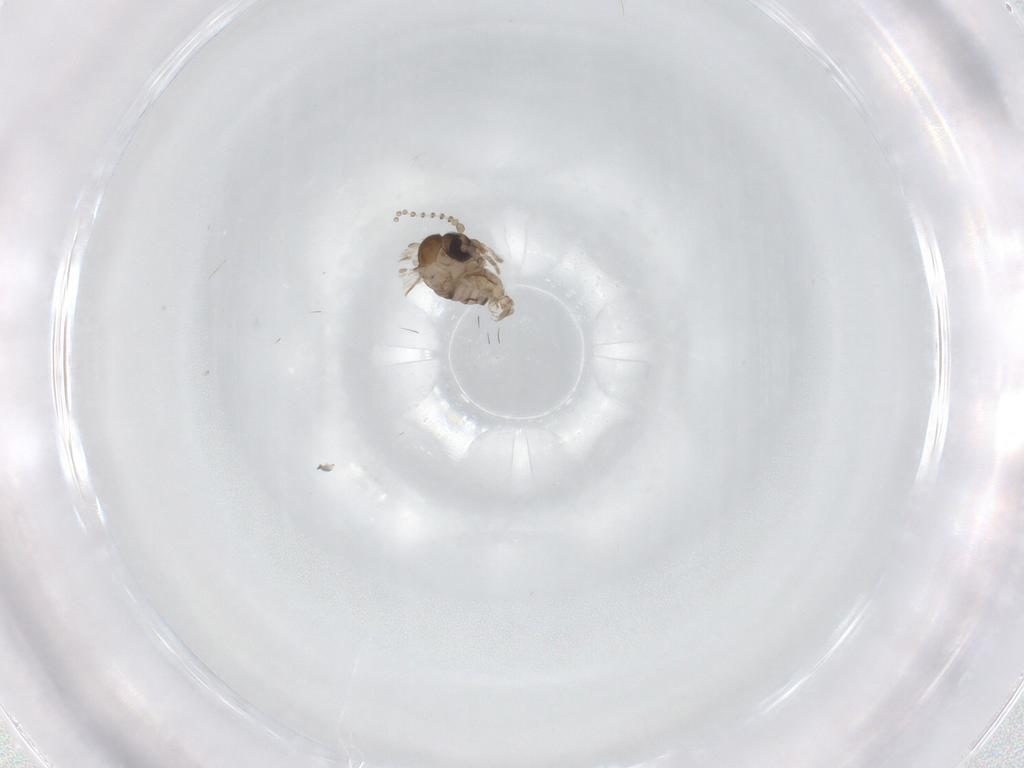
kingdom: Animalia
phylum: Arthropoda
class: Insecta
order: Diptera
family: Psychodidae
